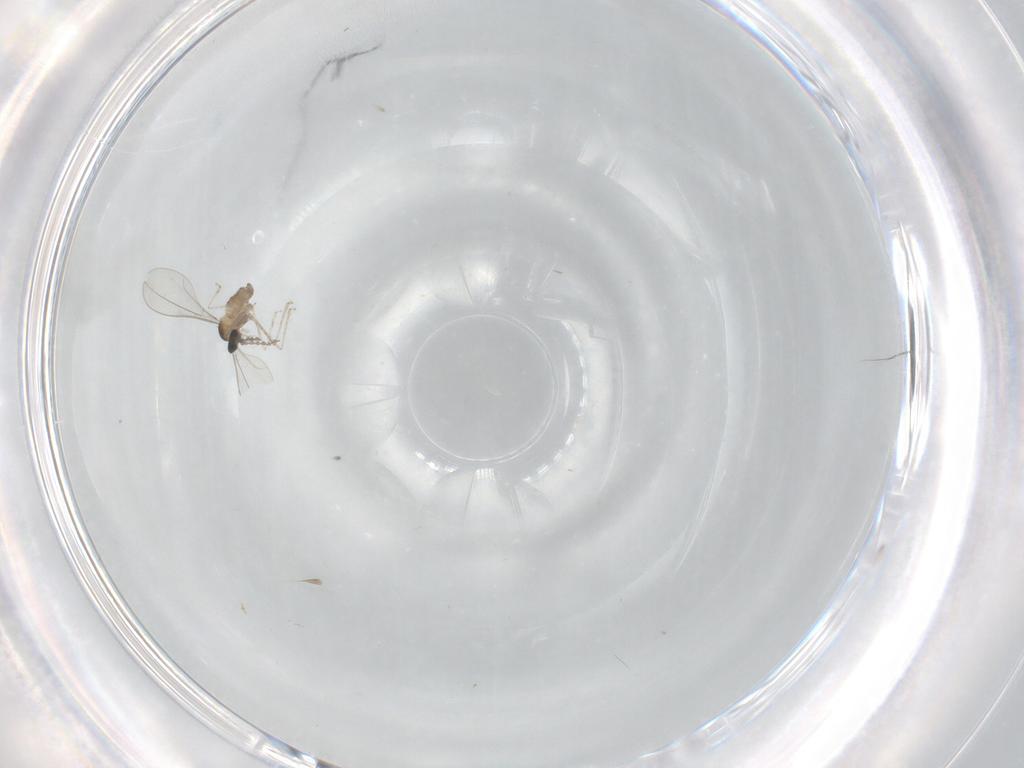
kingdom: Animalia
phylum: Arthropoda
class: Insecta
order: Diptera
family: Cecidomyiidae
